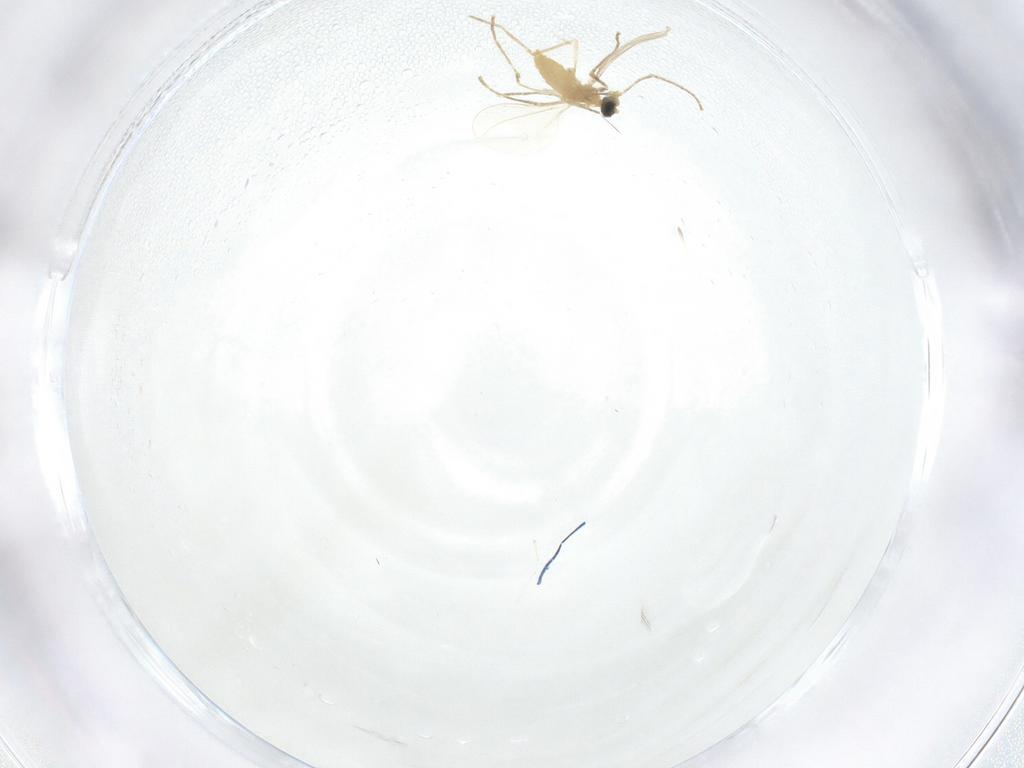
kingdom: Animalia
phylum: Arthropoda
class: Insecta
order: Diptera
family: Cecidomyiidae
